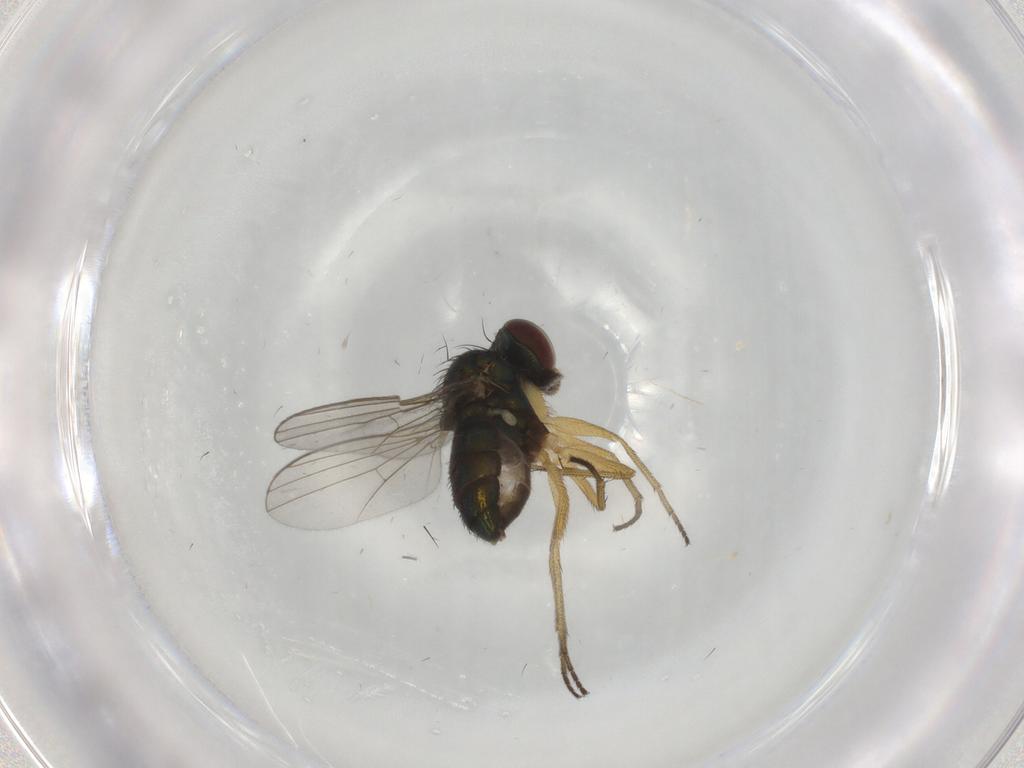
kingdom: Animalia
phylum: Arthropoda
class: Insecta
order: Diptera
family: Dolichopodidae
